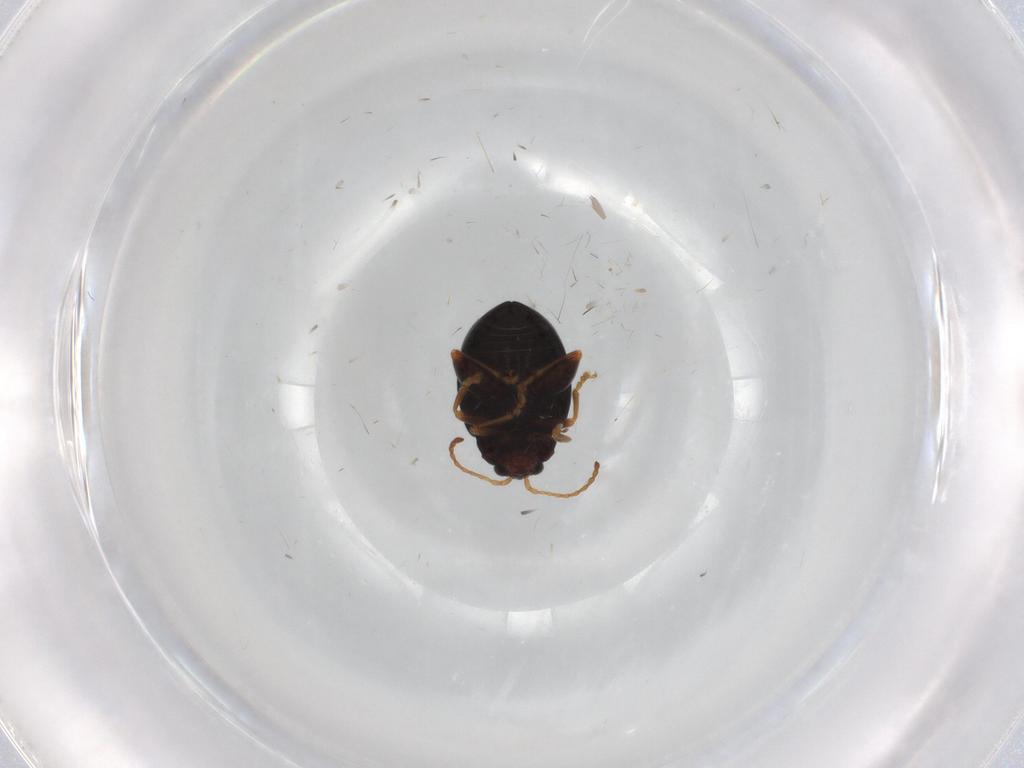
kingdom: Animalia
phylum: Arthropoda
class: Insecta
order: Coleoptera
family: Chrysomelidae
